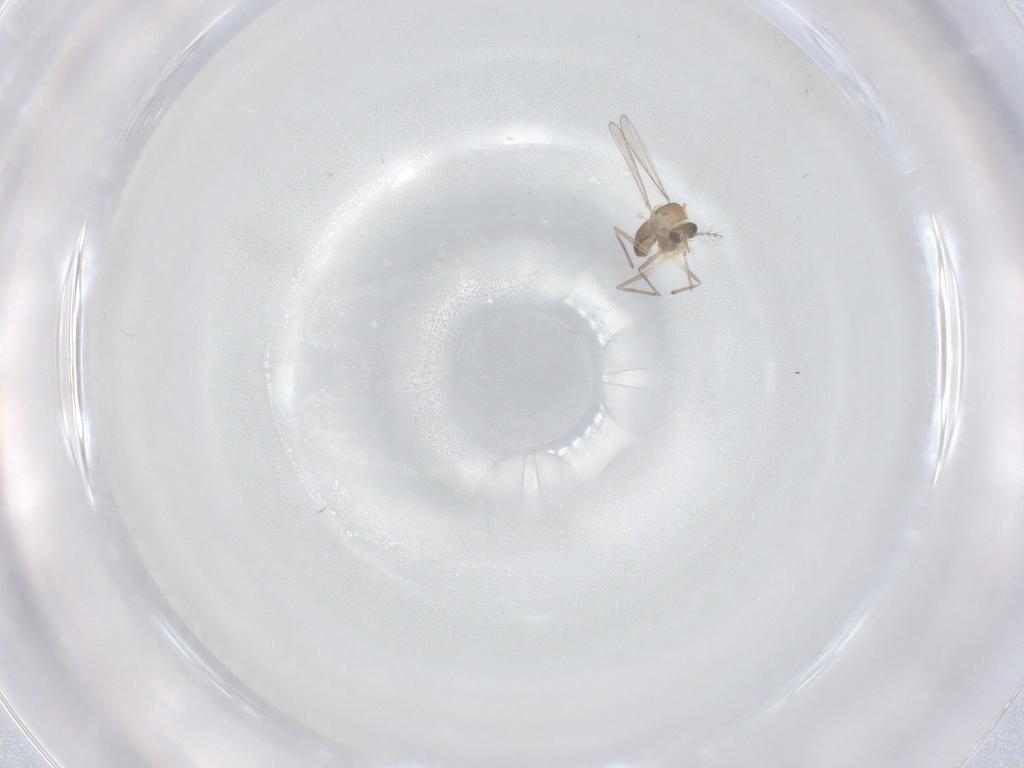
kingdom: Animalia
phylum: Arthropoda
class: Insecta
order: Diptera
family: Chironomidae
